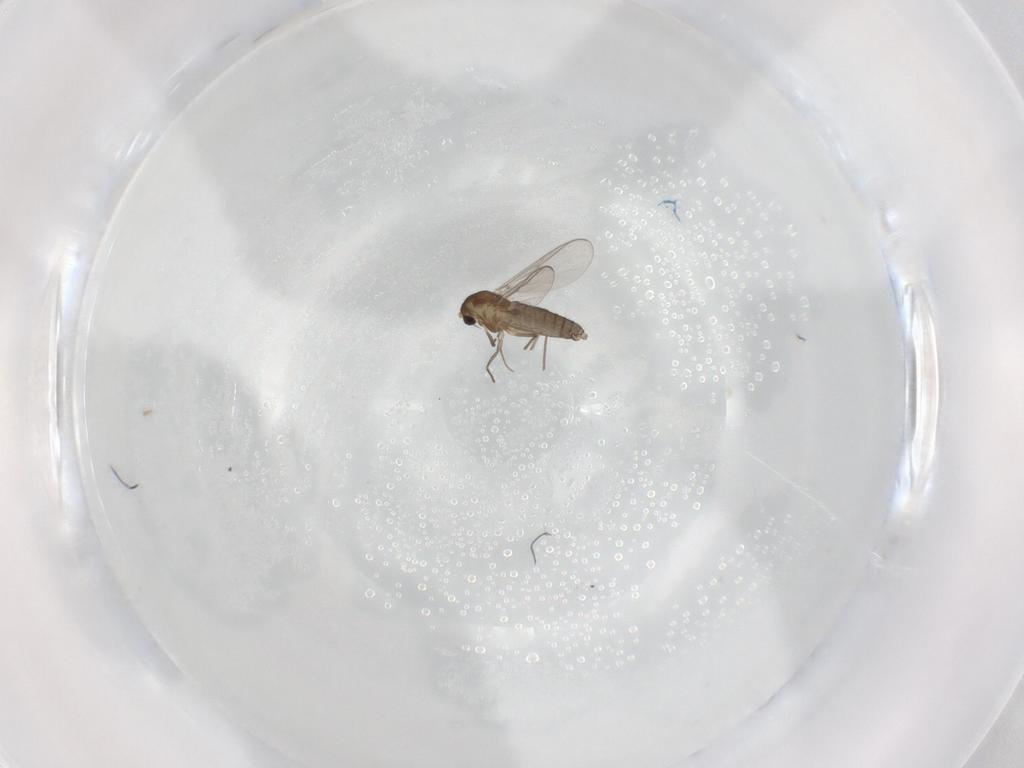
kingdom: Animalia
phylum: Arthropoda
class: Insecta
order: Diptera
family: Chironomidae
